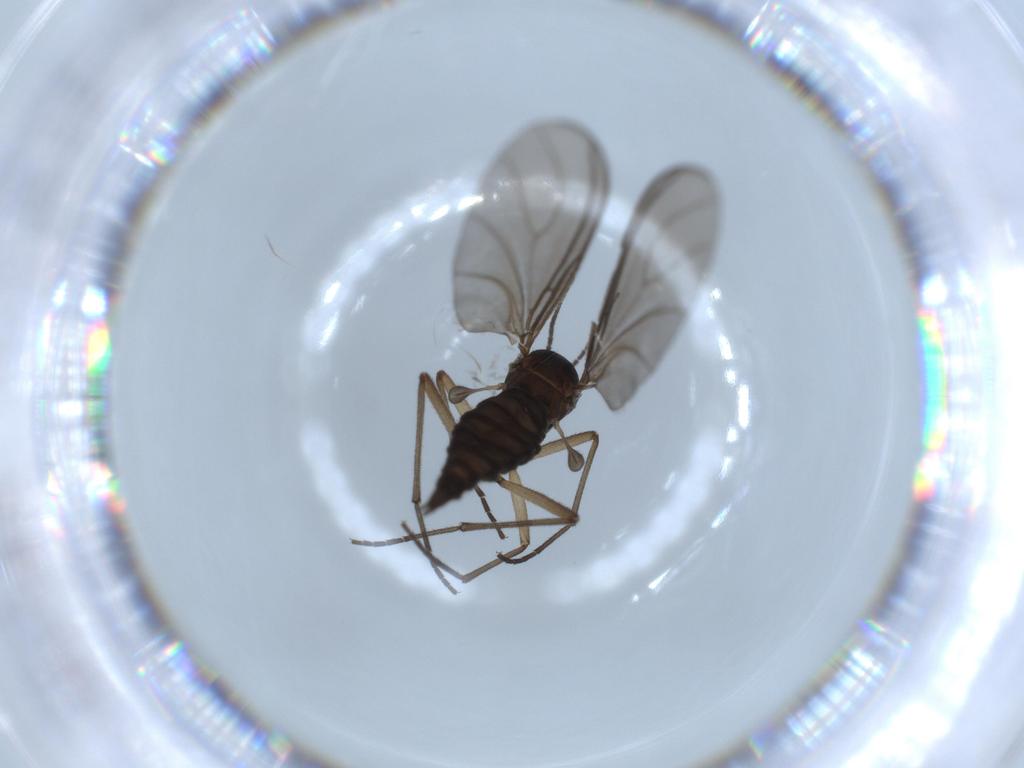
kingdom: Animalia
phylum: Arthropoda
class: Insecta
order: Diptera
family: Sciaridae
